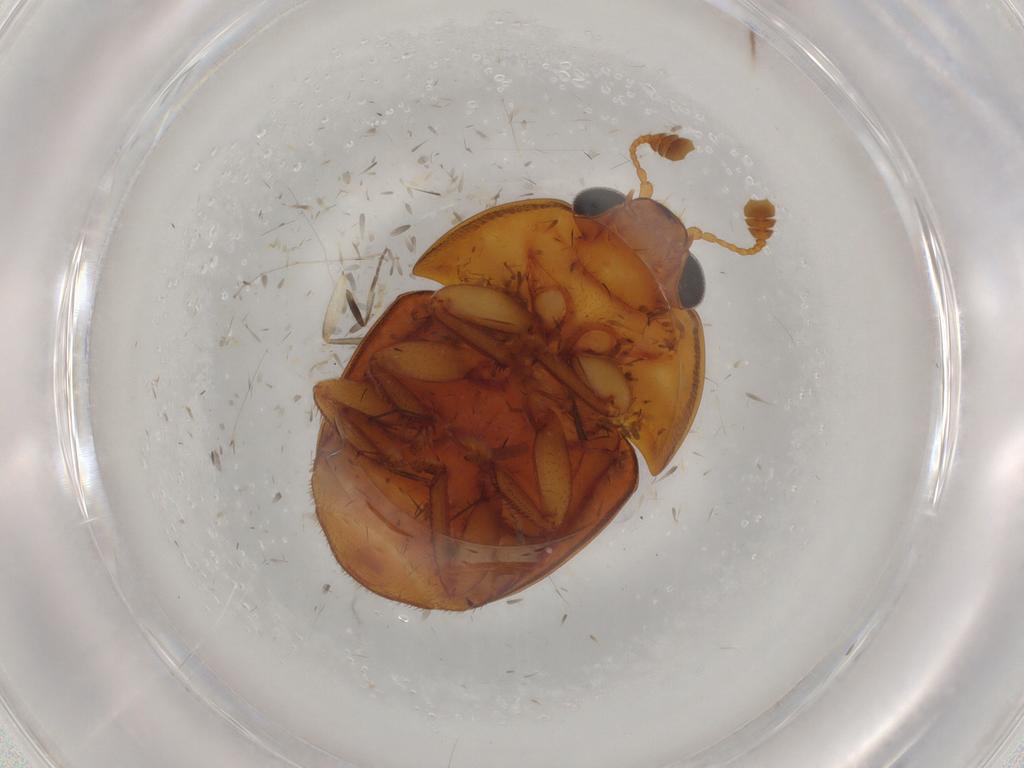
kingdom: Animalia
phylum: Arthropoda
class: Insecta
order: Coleoptera
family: Nitidulidae
